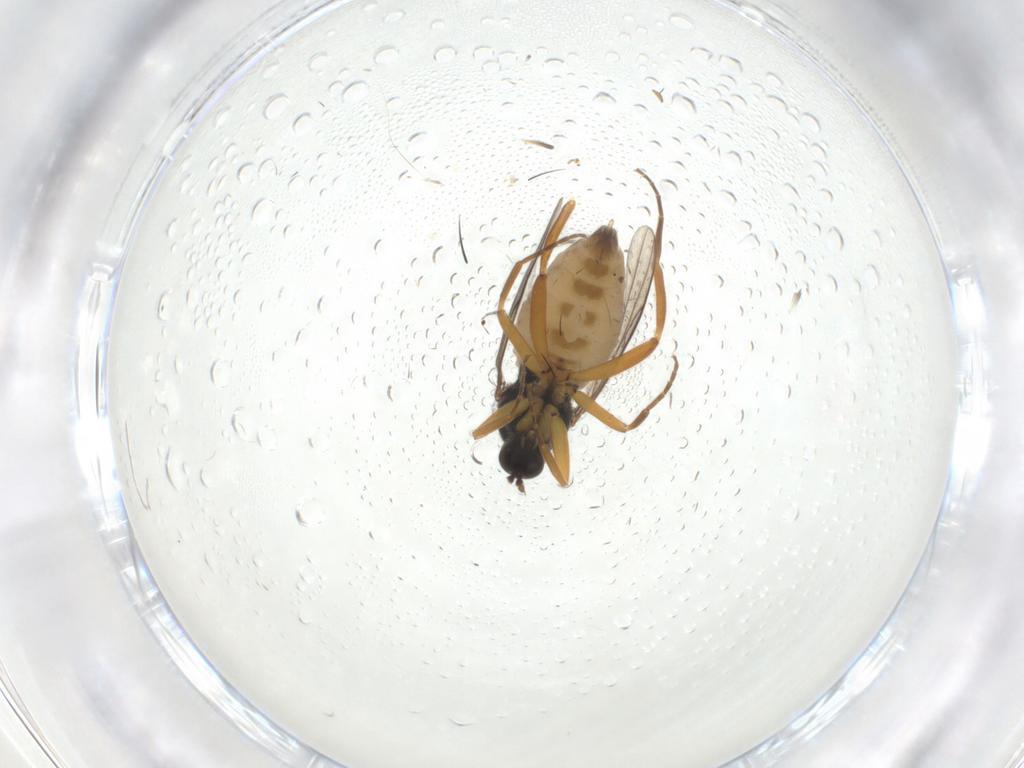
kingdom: Animalia
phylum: Arthropoda
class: Insecta
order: Diptera
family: Hybotidae
